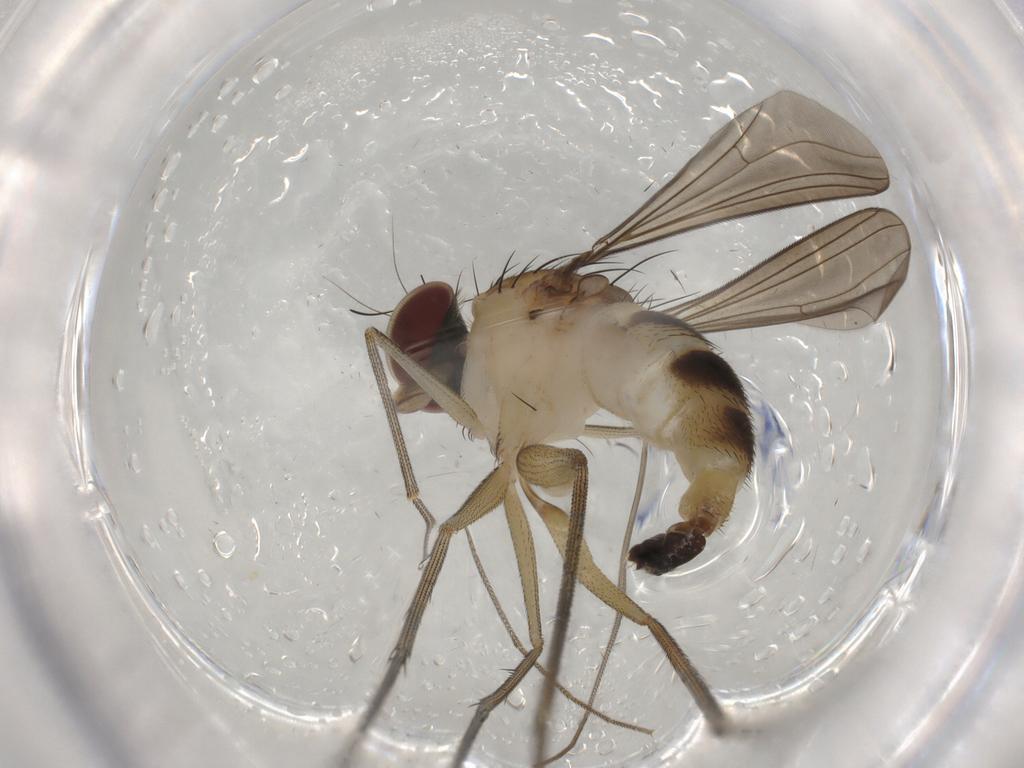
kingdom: Animalia
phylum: Arthropoda
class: Insecta
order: Diptera
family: Dolichopodidae
